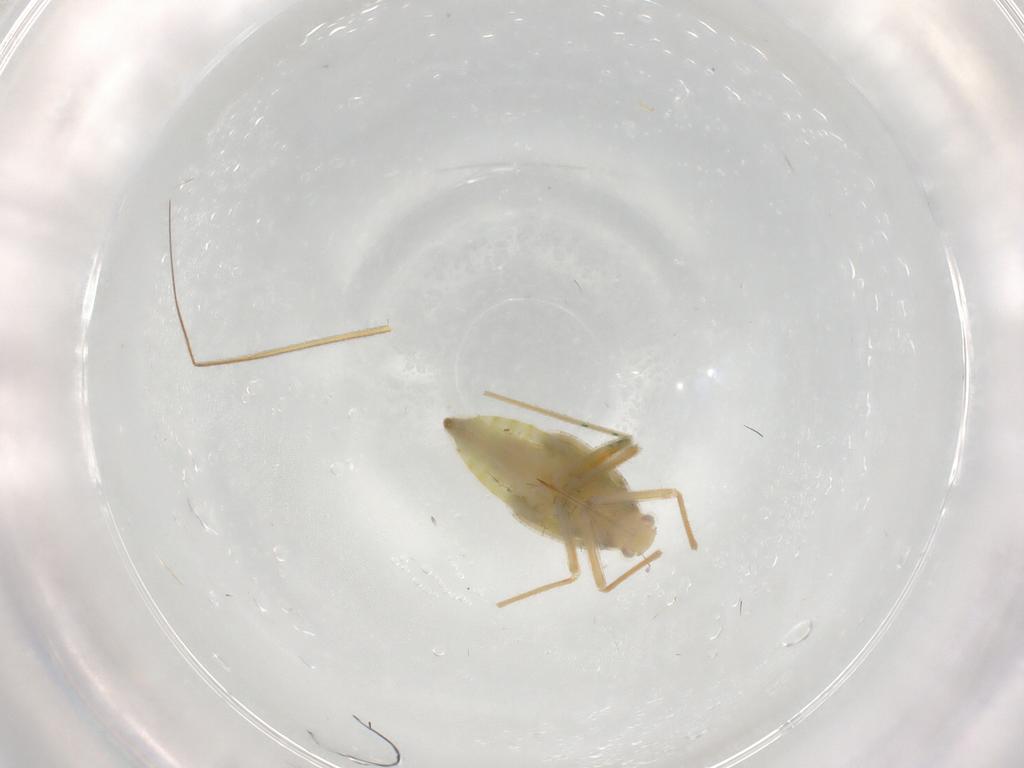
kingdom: Animalia
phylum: Arthropoda
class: Insecta
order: Hemiptera
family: Miridae
